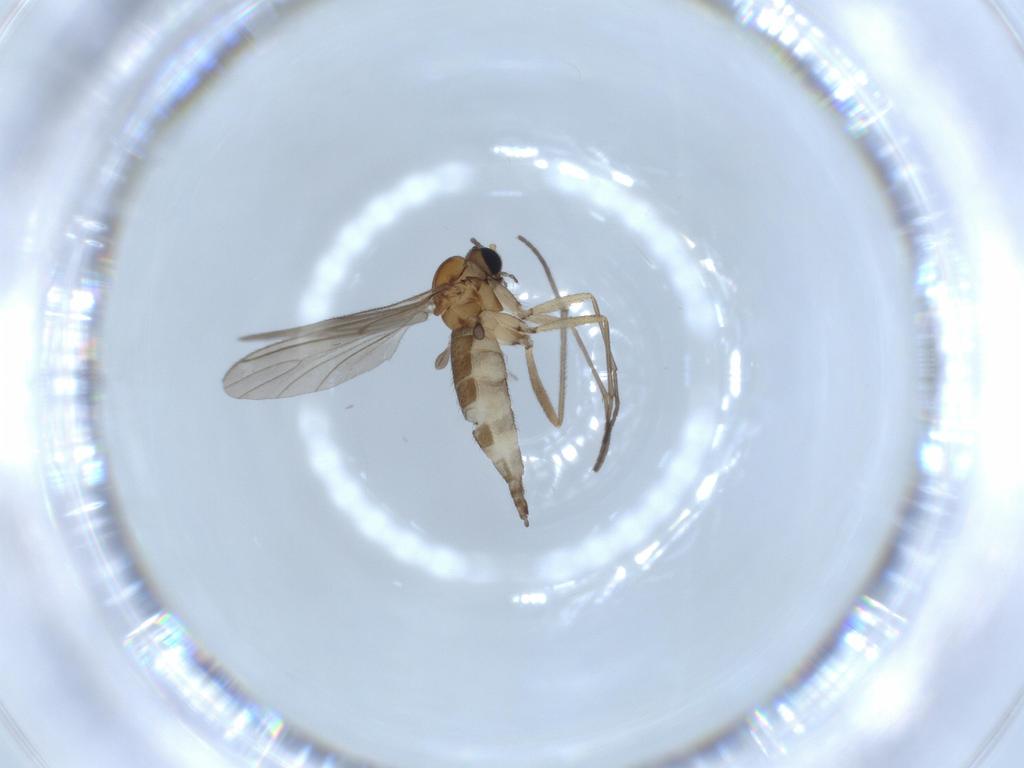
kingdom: Animalia
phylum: Arthropoda
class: Insecta
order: Diptera
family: Sciaridae
